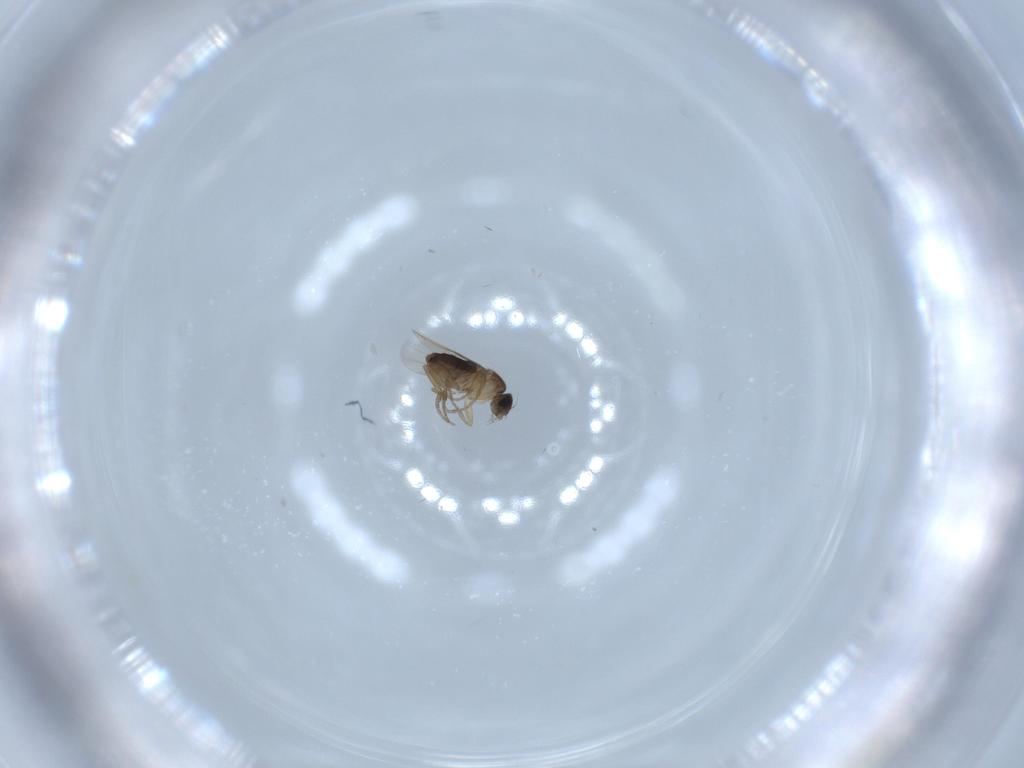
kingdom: Animalia
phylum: Arthropoda
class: Insecta
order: Diptera
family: Phoridae
